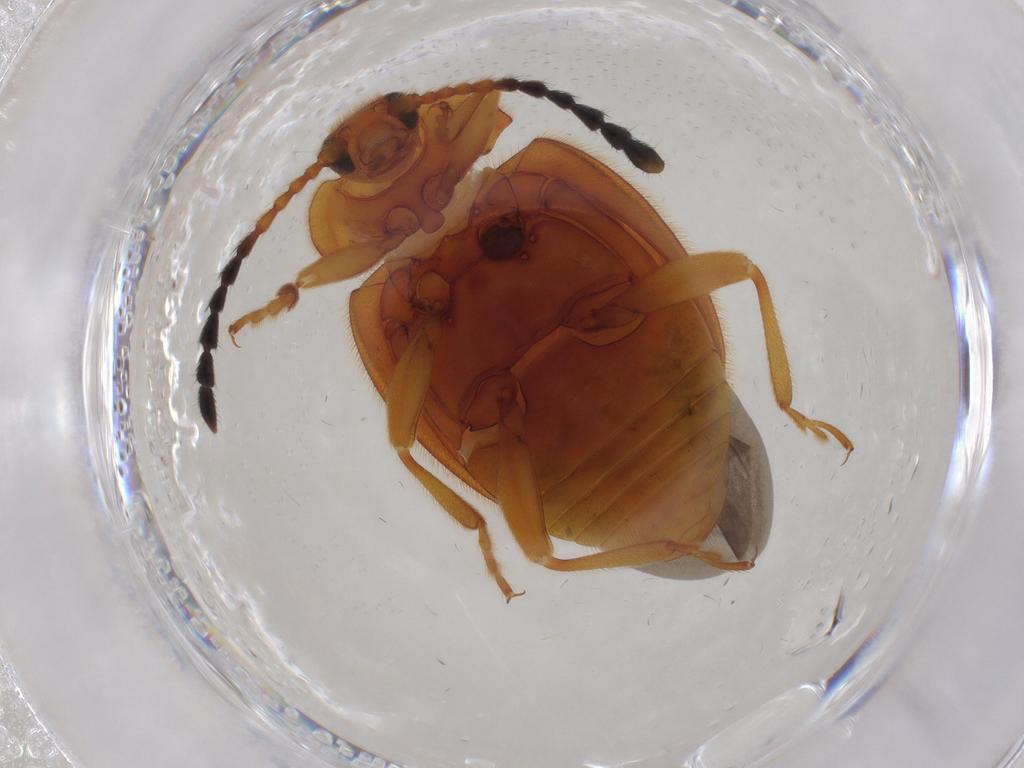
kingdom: Animalia
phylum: Arthropoda
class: Insecta
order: Coleoptera
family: Endomychidae
